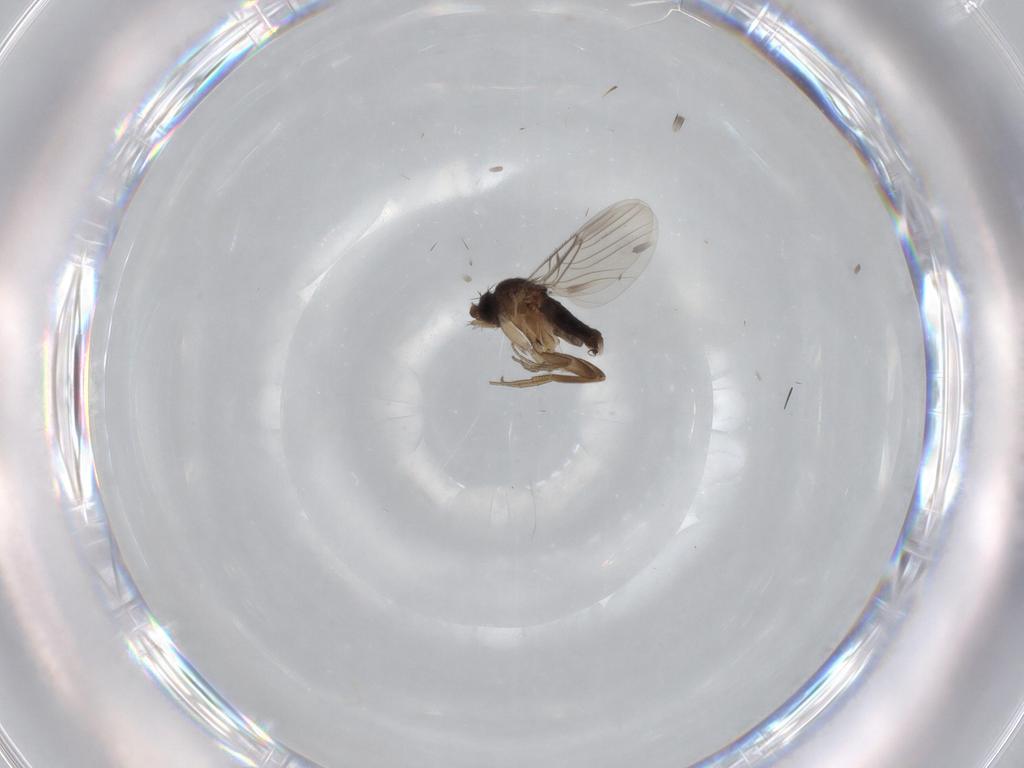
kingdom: Animalia
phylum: Arthropoda
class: Insecta
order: Diptera
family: Phoridae
